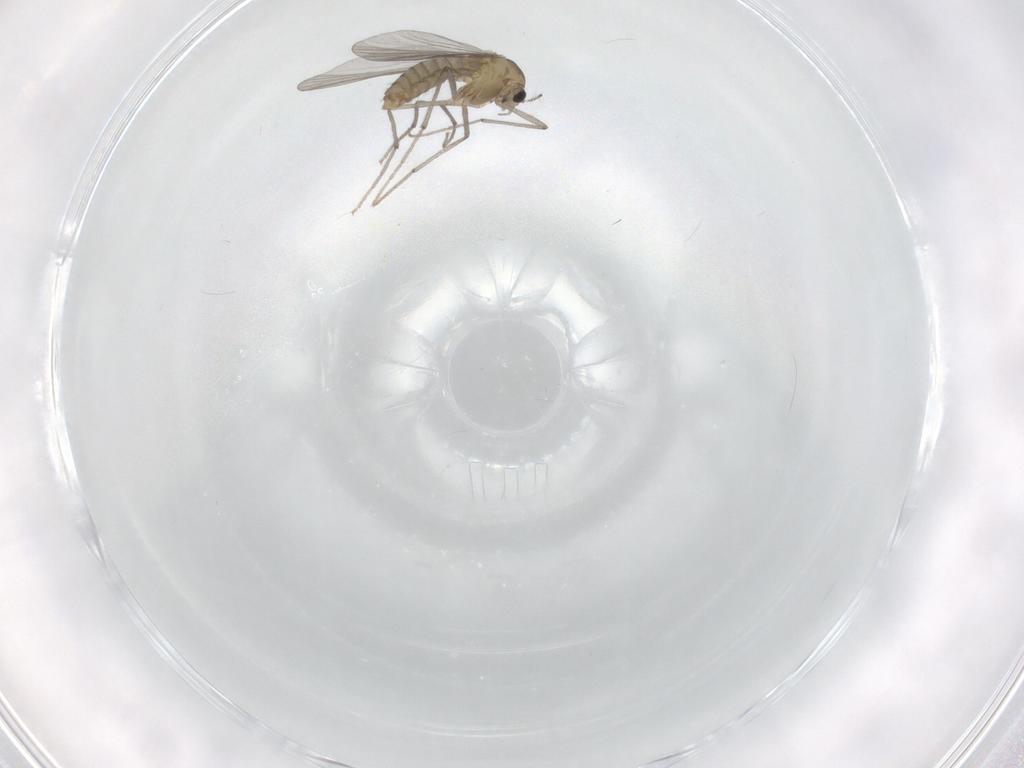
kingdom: Animalia
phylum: Arthropoda
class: Insecta
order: Diptera
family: Chironomidae
